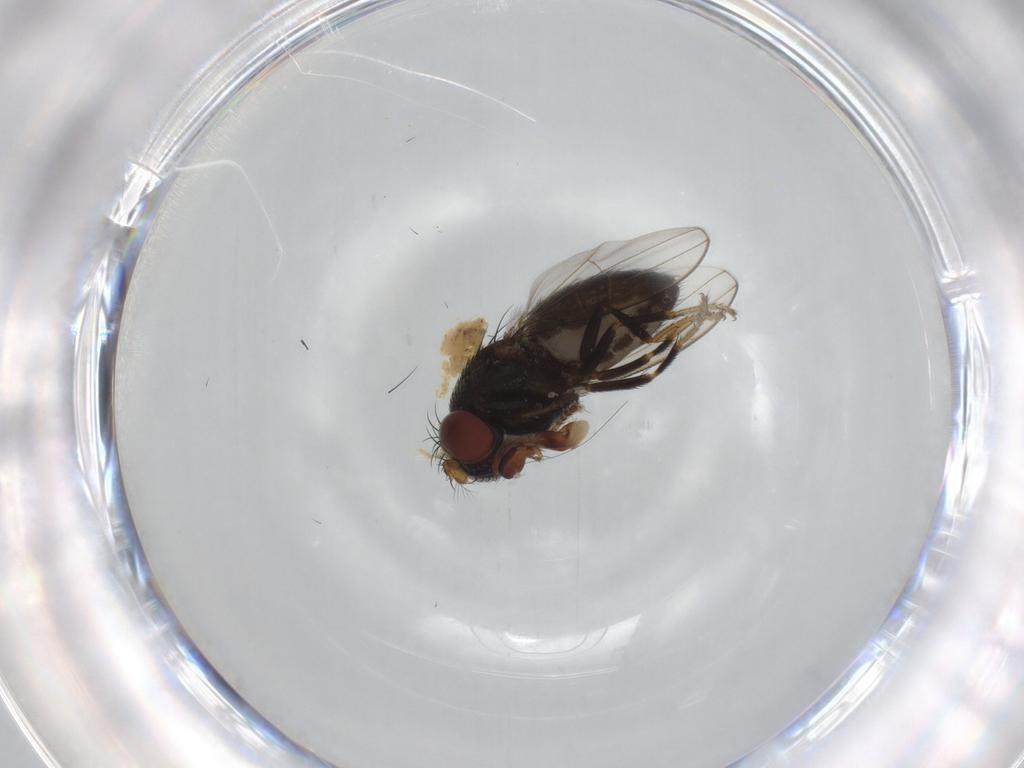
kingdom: Animalia
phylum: Arthropoda
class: Insecta
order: Diptera
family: Ephydridae
